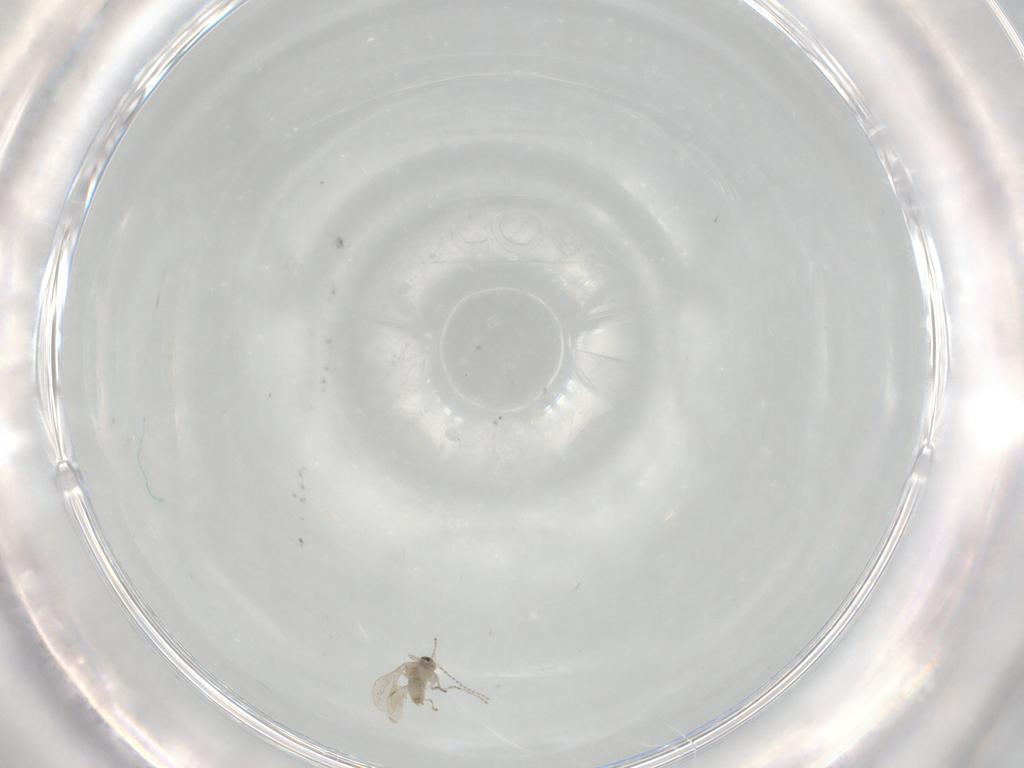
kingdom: Animalia
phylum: Arthropoda
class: Insecta
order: Diptera
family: Cecidomyiidae
